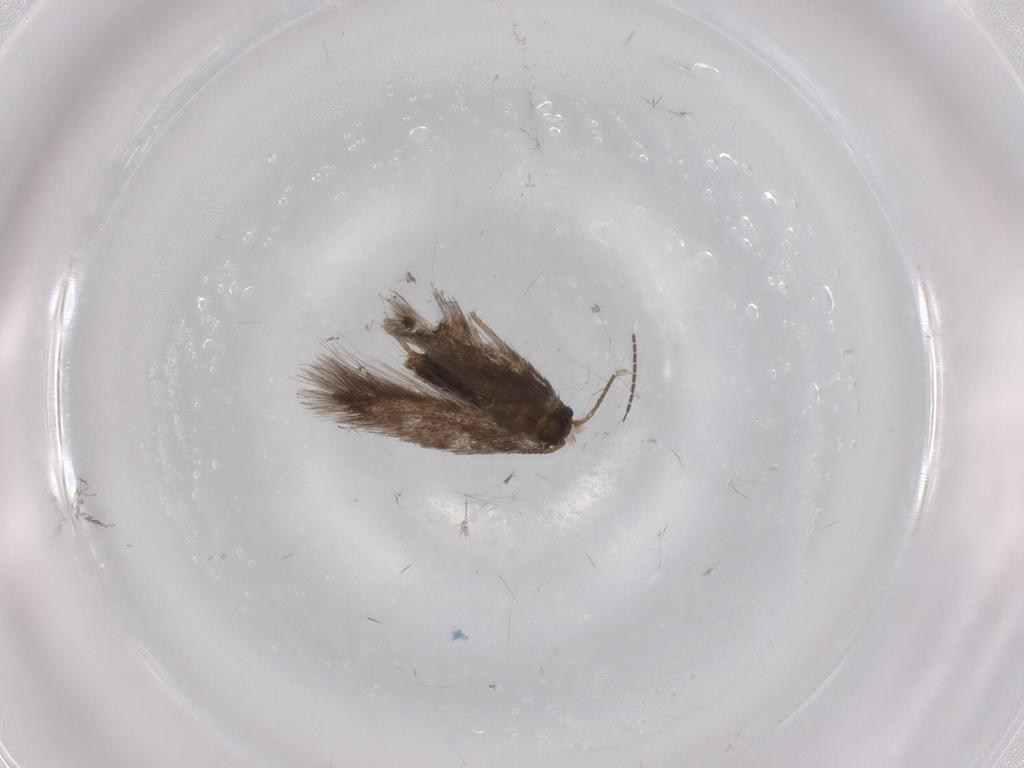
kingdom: Animalia
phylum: Arthropoda
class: Insecta
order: Lepidoptera
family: Nepticulidae
